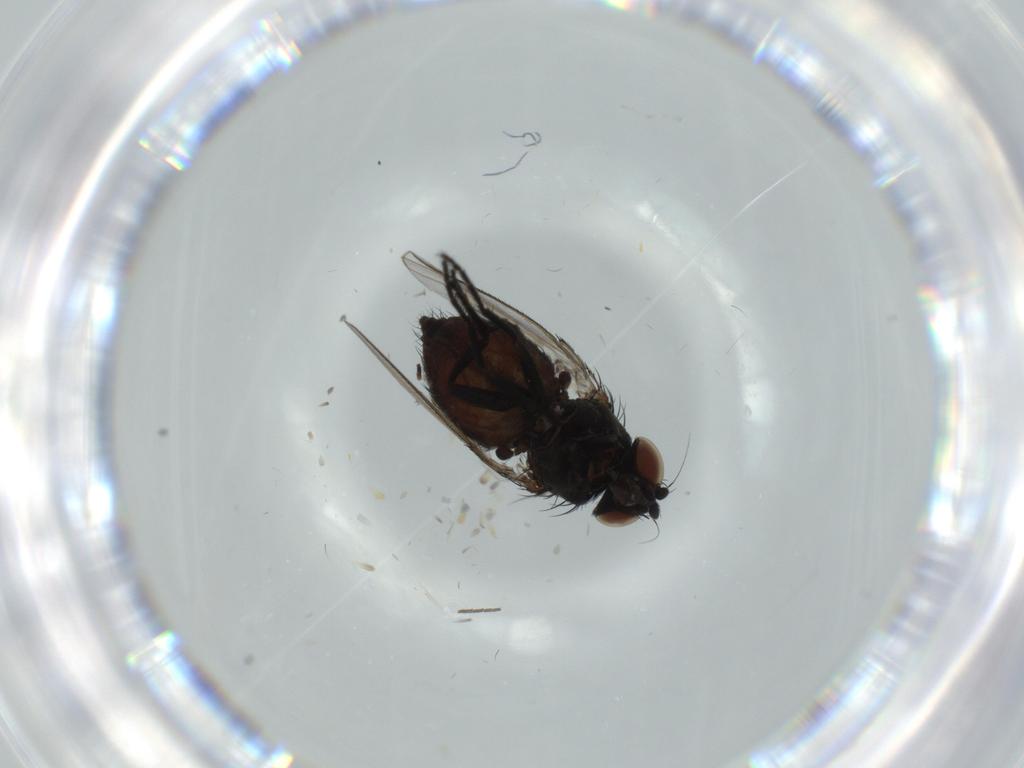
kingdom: Animalia
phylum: Arthropoda
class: Insecta
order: Diptera
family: Milichiidae
